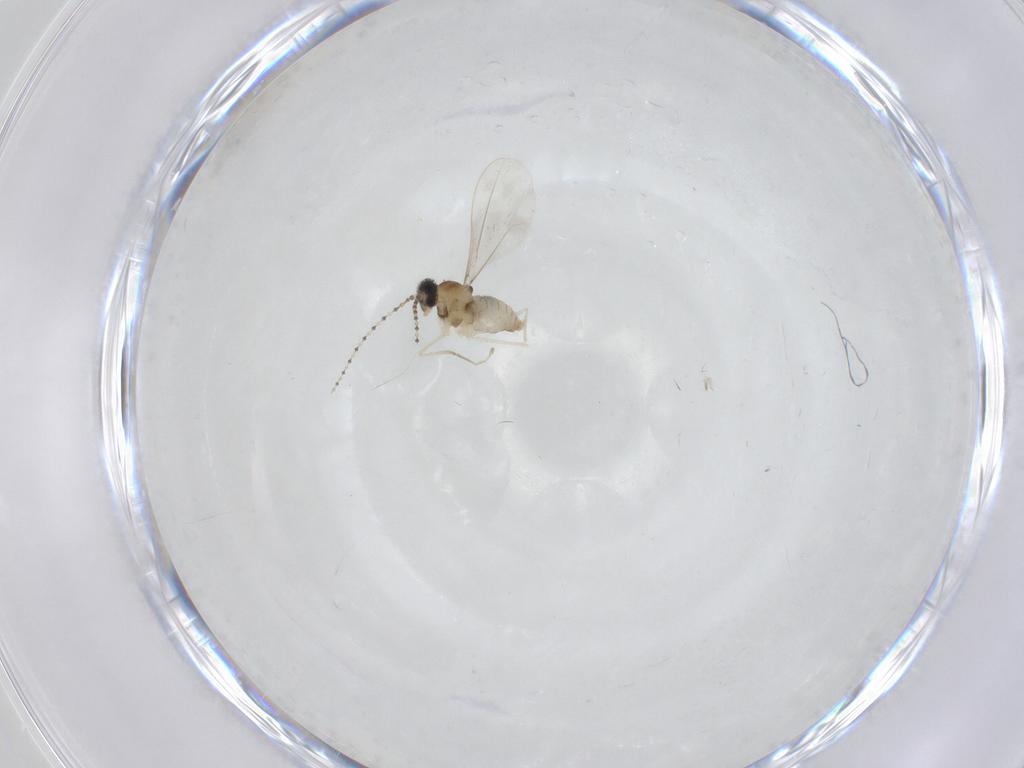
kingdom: Animalia
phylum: Arthropoda
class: Insecta
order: Diptera
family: Cecidomyiidae
